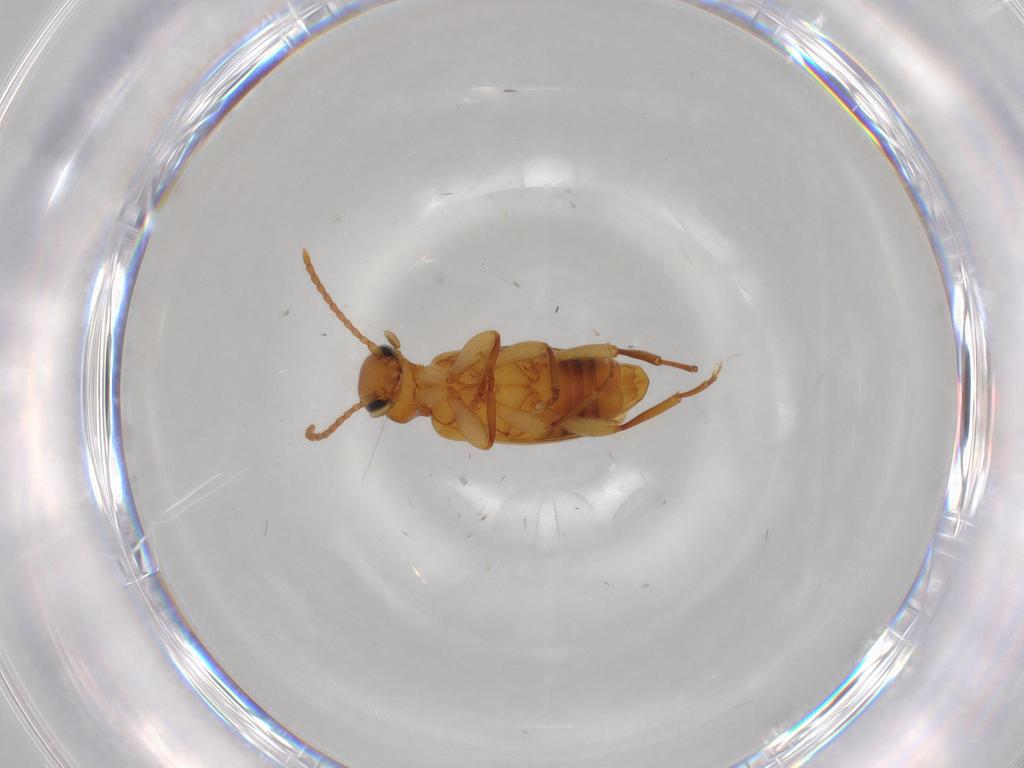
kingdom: Animalia
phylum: Arthropoda
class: Insecta
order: Coleoptera
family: Anthicidae
